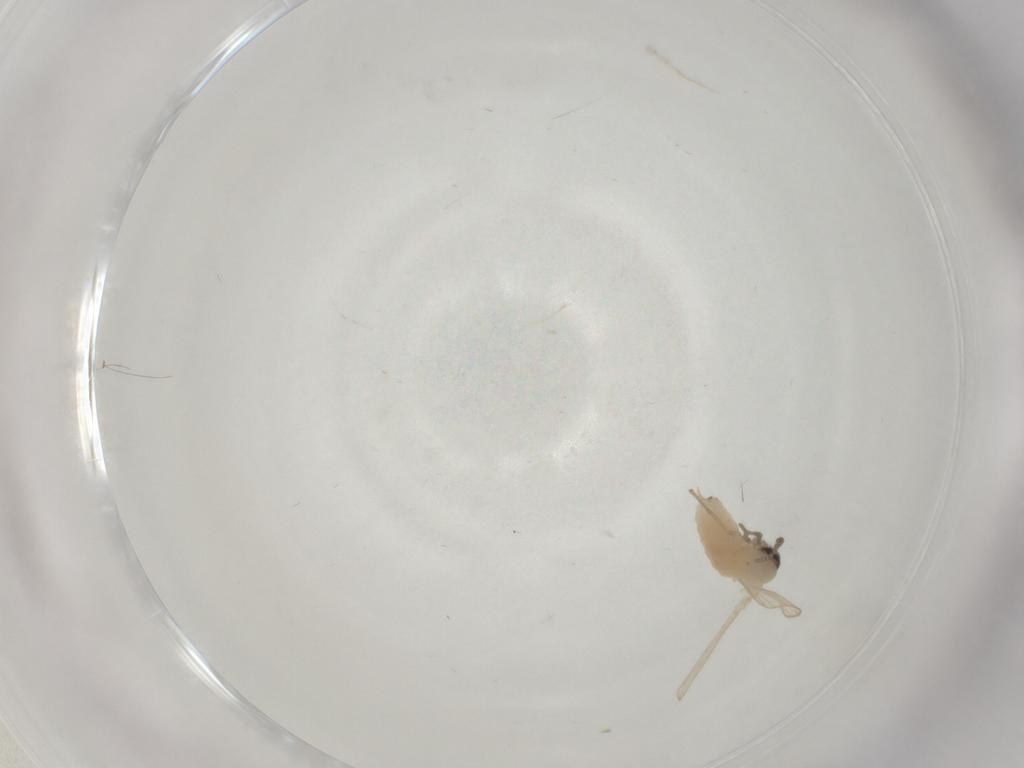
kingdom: Animalia
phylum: Arthropoda
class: Insecta
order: Diptera
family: Psychodidae
